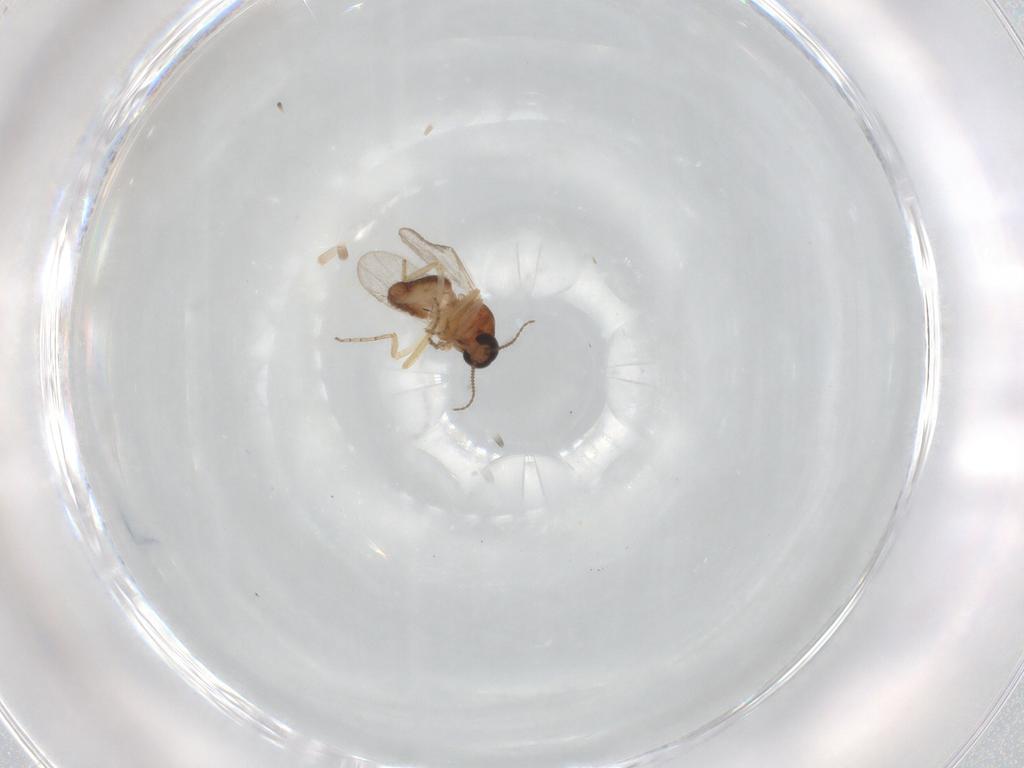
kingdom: Animalia
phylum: Arthropoda
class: Insecta
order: Diptera
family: Ceratopogonidae
